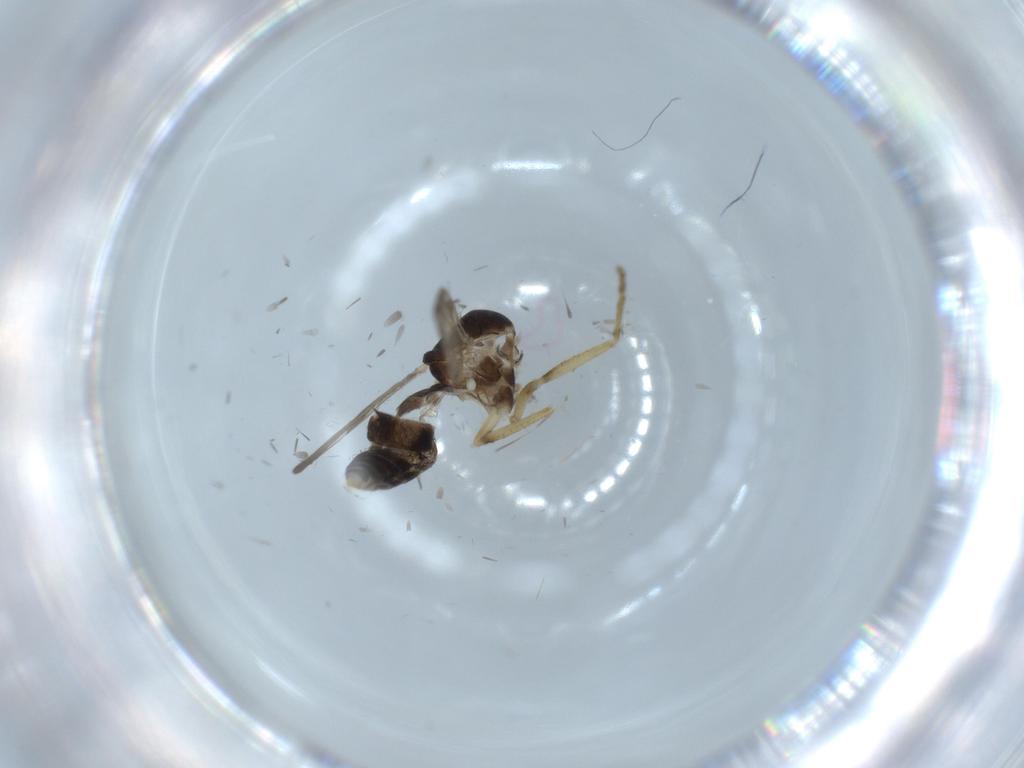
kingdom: Animalia
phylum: Arthropoda
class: Insecta
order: Diptera
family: Ceratopogonidae
